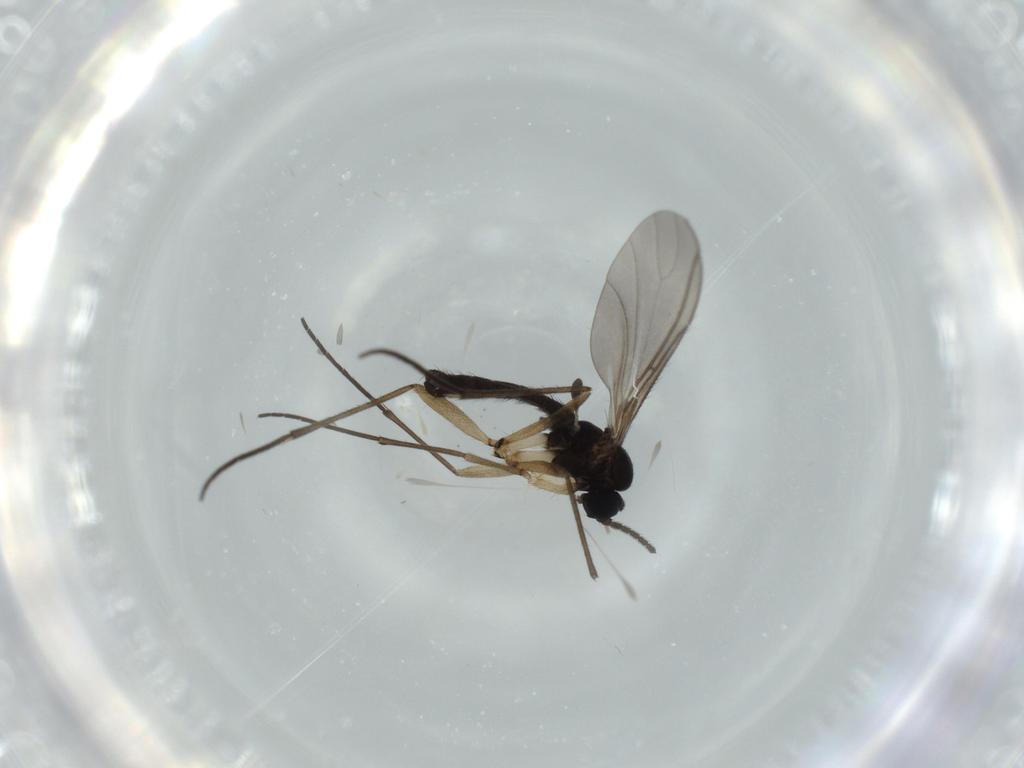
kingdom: Animalia
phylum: Arthropoda
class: Insecta
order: Diptera
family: Sciaridae
